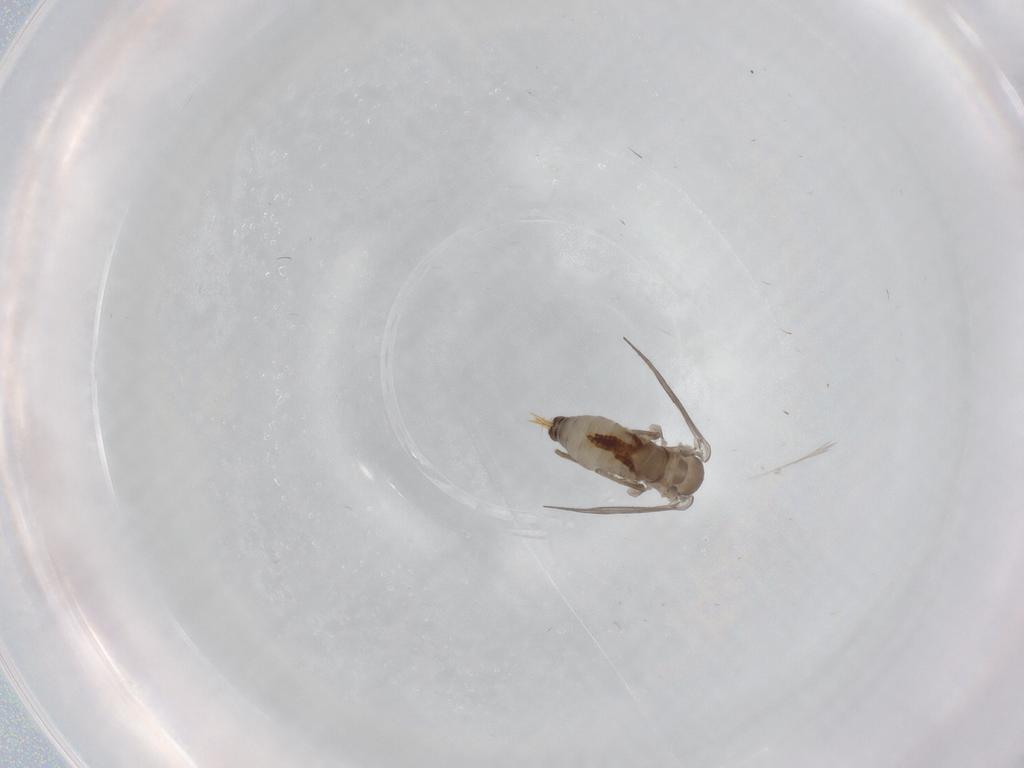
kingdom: Animalia
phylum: Arthropoda
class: Insecta
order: Diptera
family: Psychodidae
